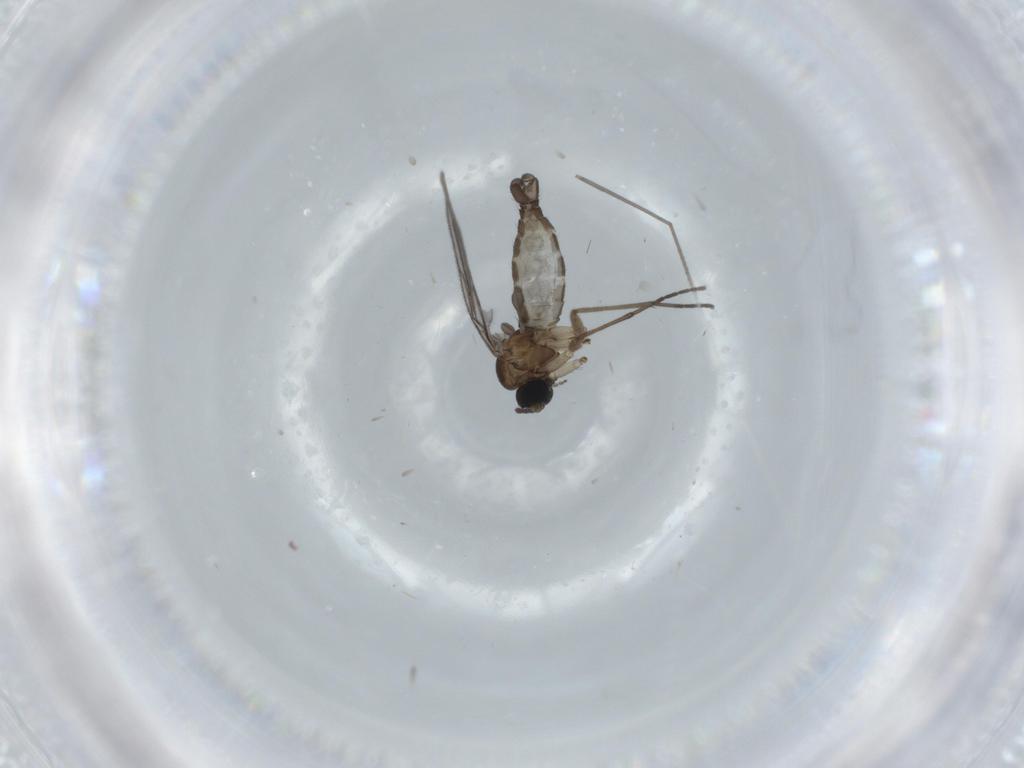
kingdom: Animalia
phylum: Arthropoda
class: Insecta
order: Diptera
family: Sciaridae
